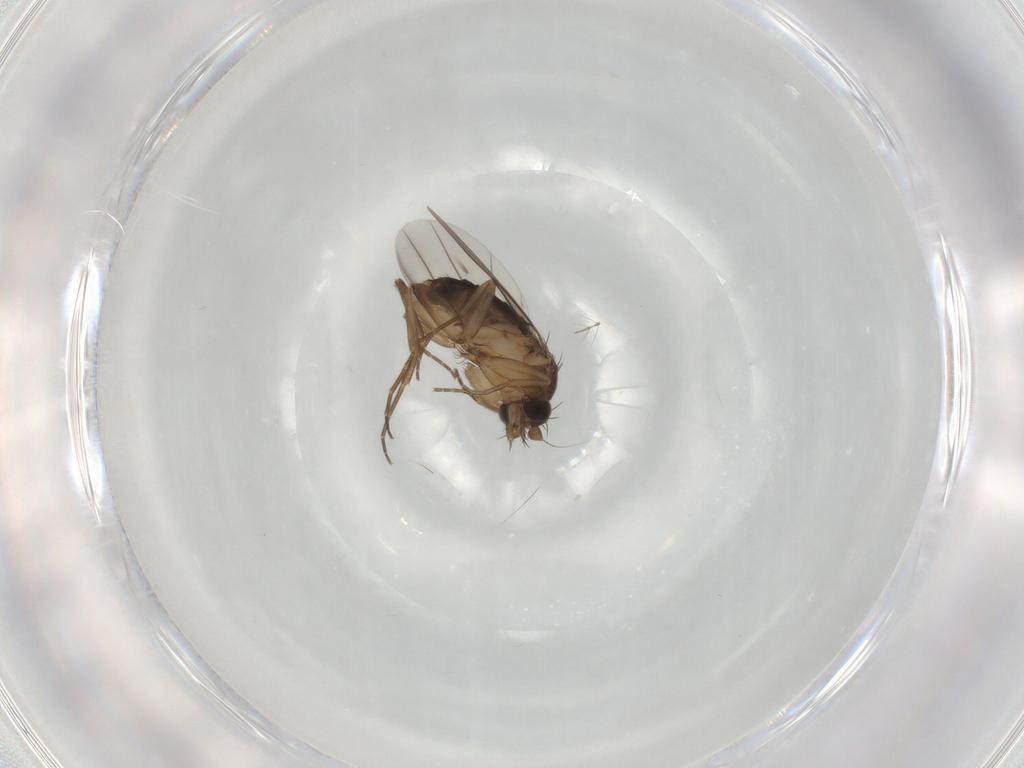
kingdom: Animalia
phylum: Arthropoda
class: Insecta
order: Diptera
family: Phoridae
